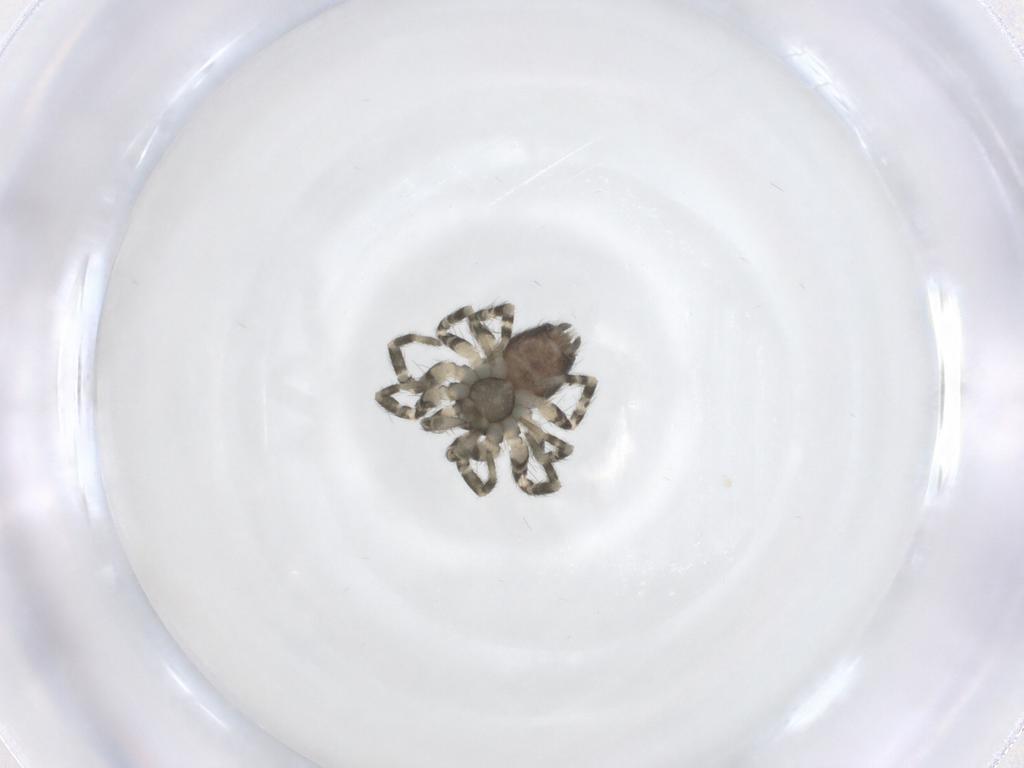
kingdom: Animalia
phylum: Arthropoda
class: Arachnida
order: Araneae
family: Oecobiidae
